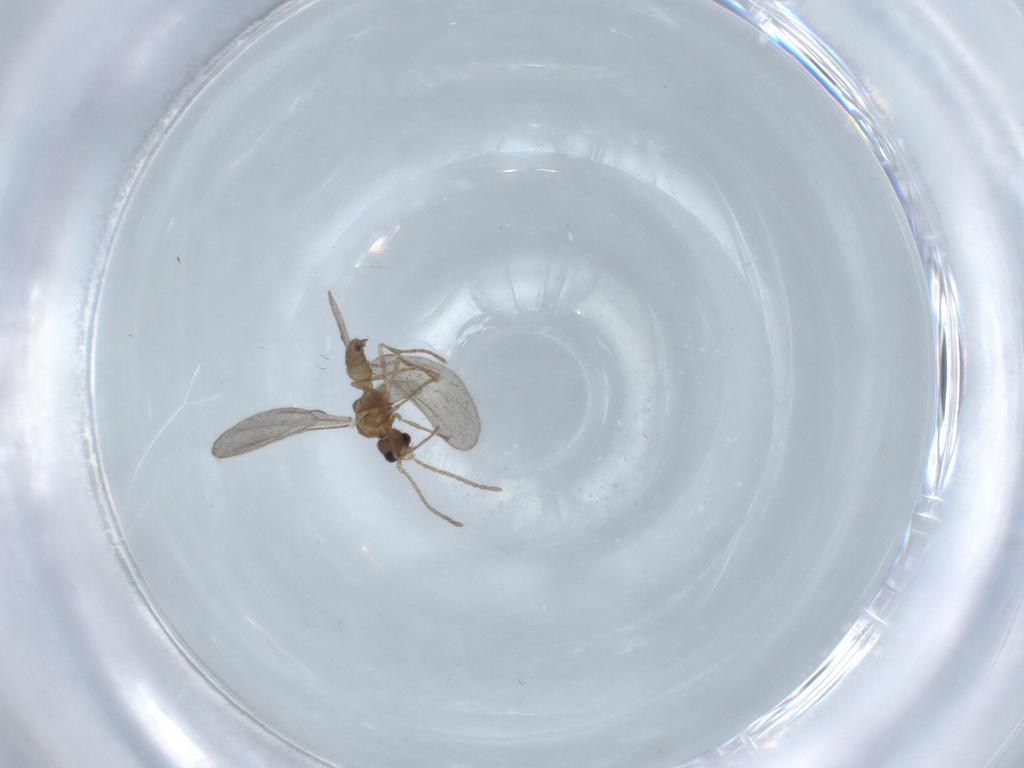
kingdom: Animalia
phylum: Arthropoda
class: Insecta
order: Hymenoptera
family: Formicidae
